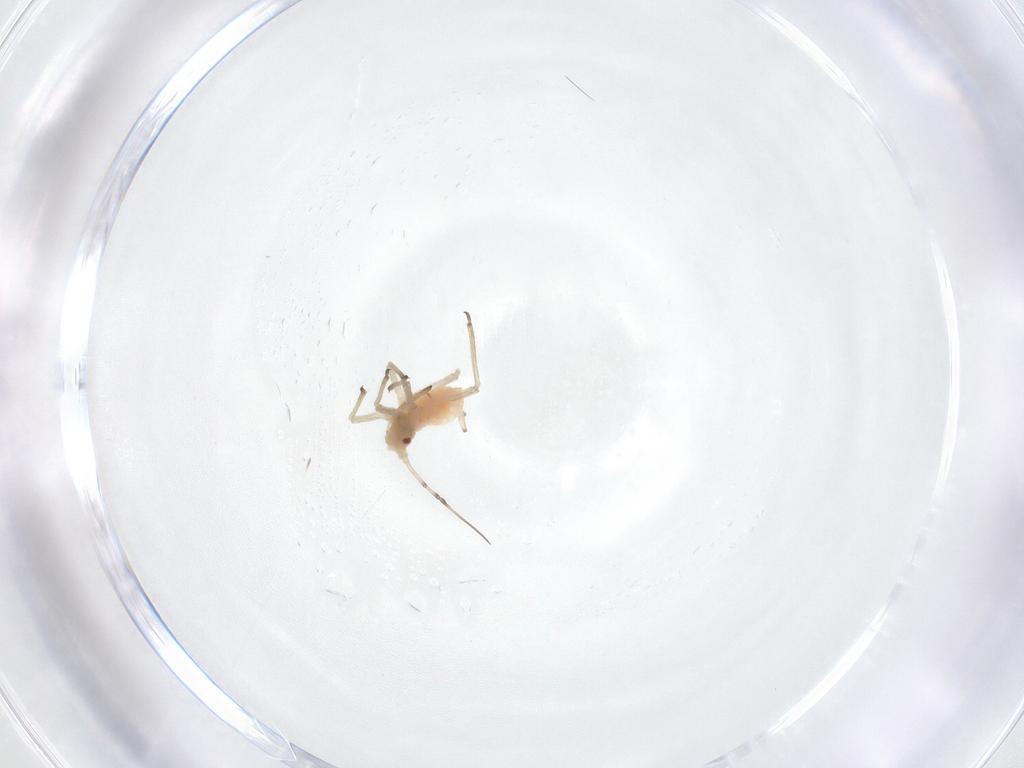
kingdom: Animalia
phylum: Arthropoda
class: Insecta
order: Hemiptera
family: Aphididae
